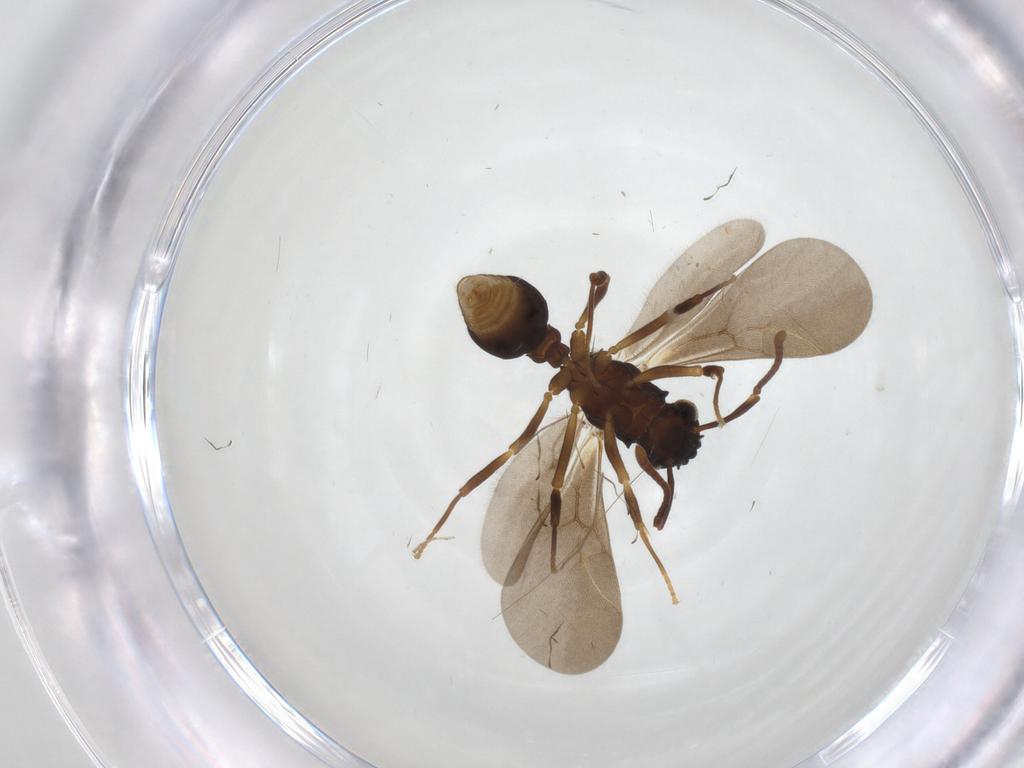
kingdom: Animalia
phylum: Arthropoda
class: Insecta
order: Hymenoptera
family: Formicidae
